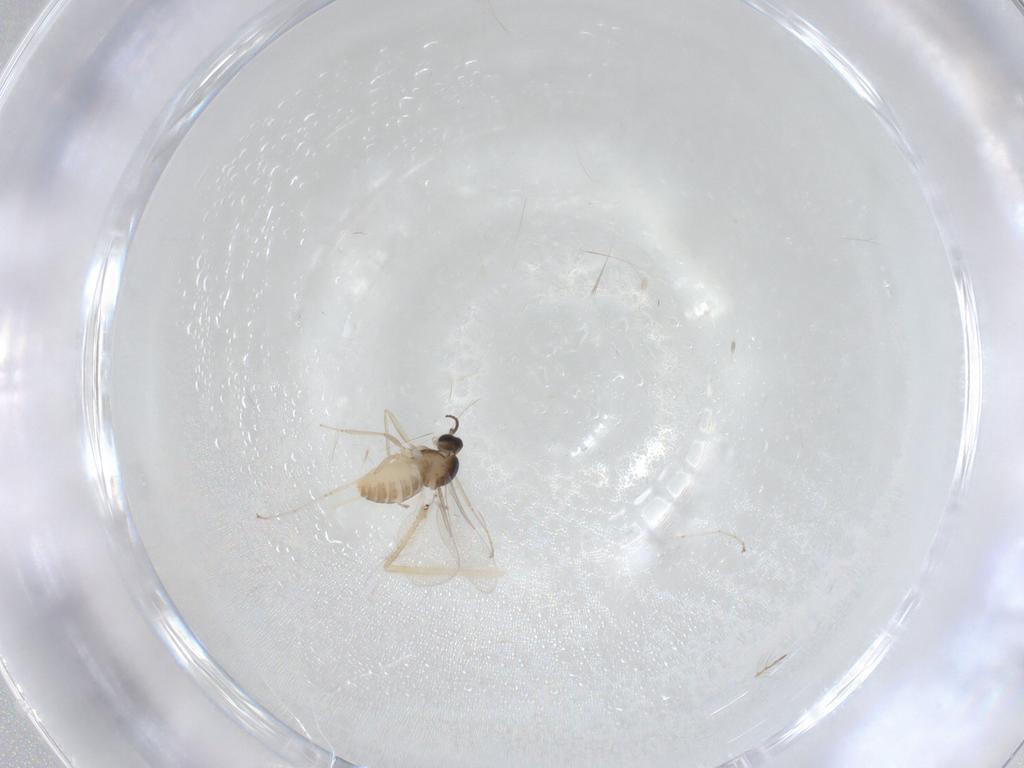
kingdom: Animalia
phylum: Arthropoda
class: Insecta
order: Diptera
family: Cecidomyiidae
